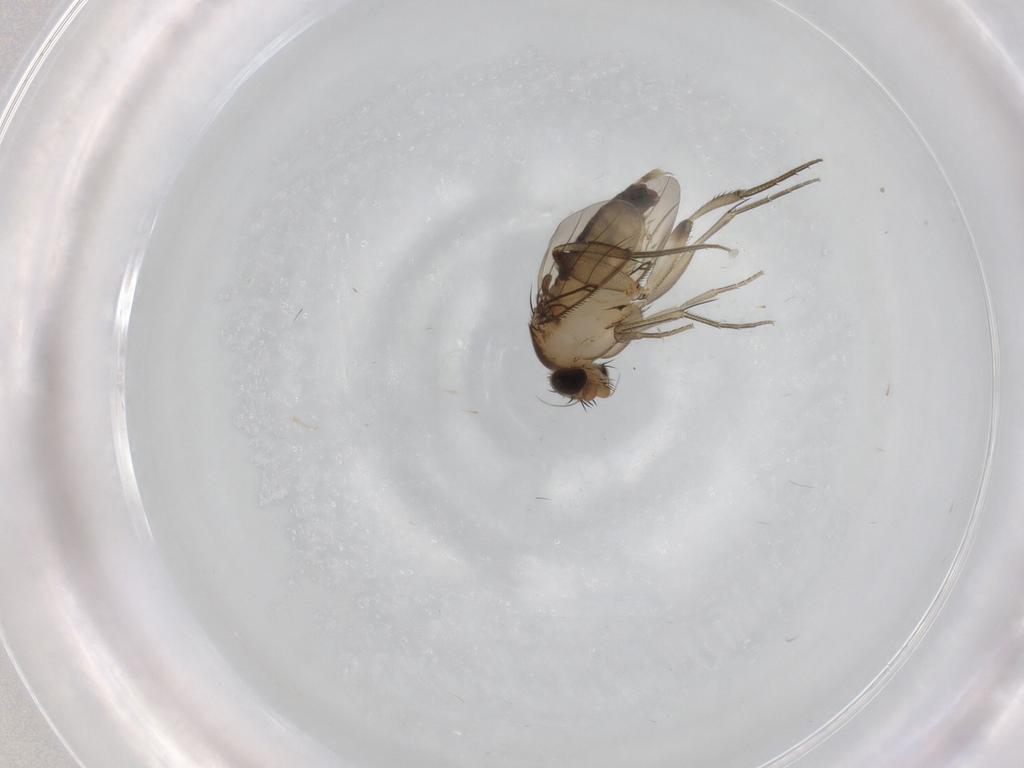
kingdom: Animalia
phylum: Arthropoda
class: Insecta
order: Diptera
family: Phoridae
